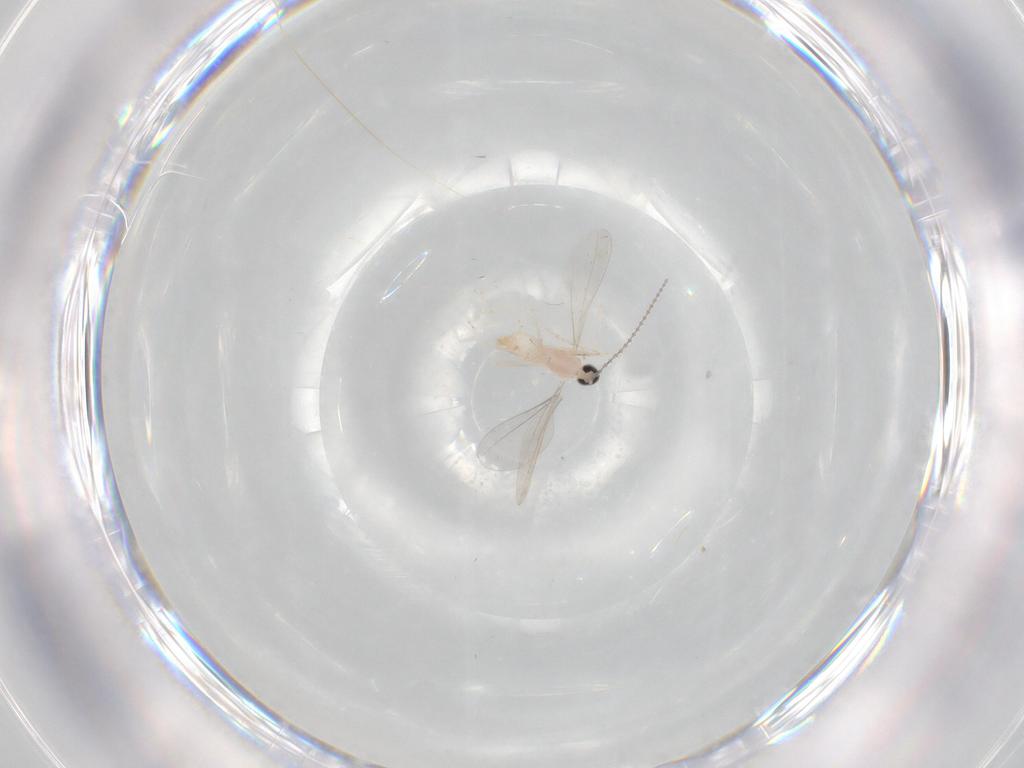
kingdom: Animalia
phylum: Arthropoda
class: Insecta
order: Diptera
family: Cecidomyiidae
